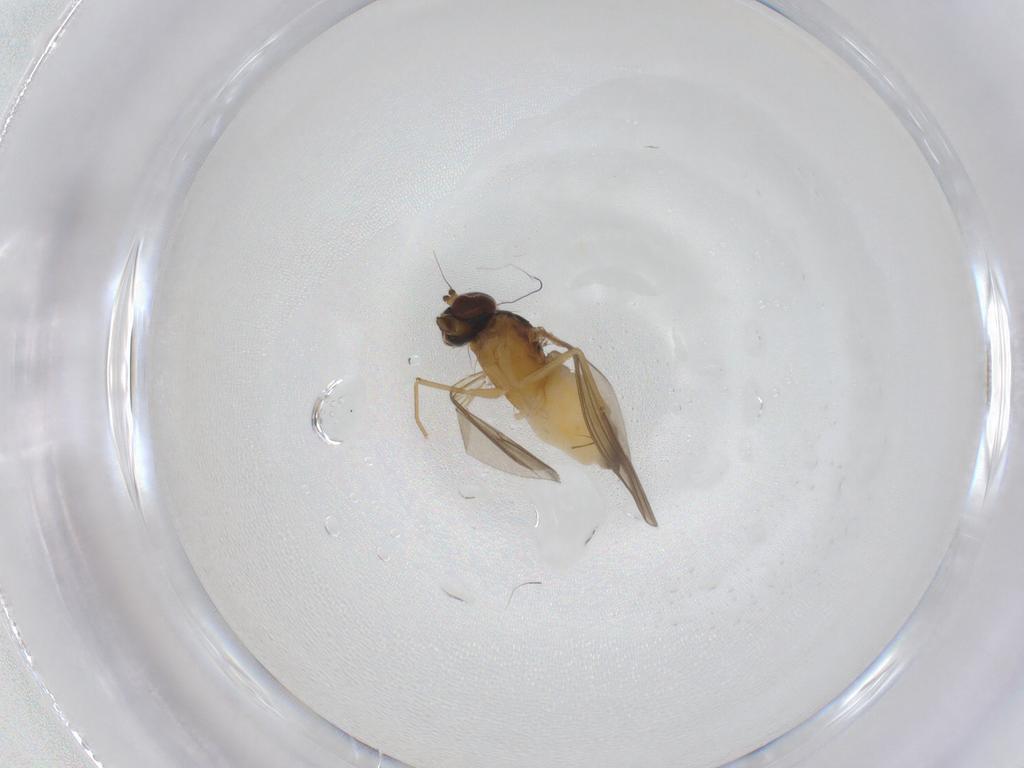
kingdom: Animalia
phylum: Arthropoda
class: Insecta
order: Diptera
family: Dolichopodidae
